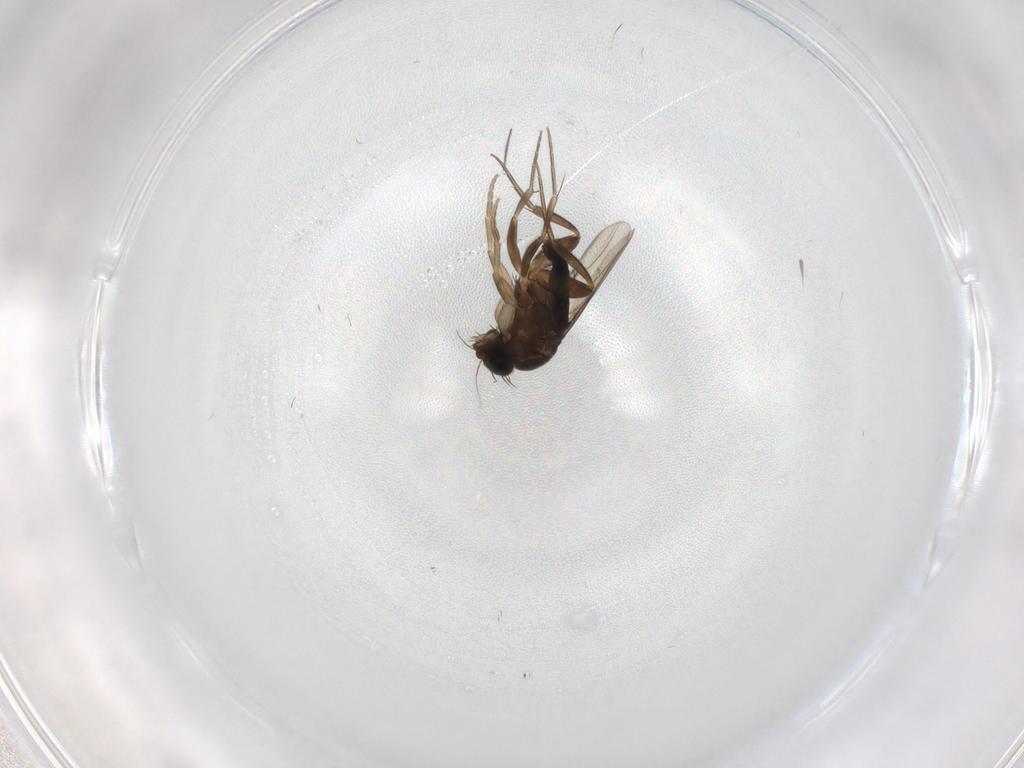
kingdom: Animalia
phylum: Arthropoda
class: Insecta
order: Diptera
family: Phoridae
